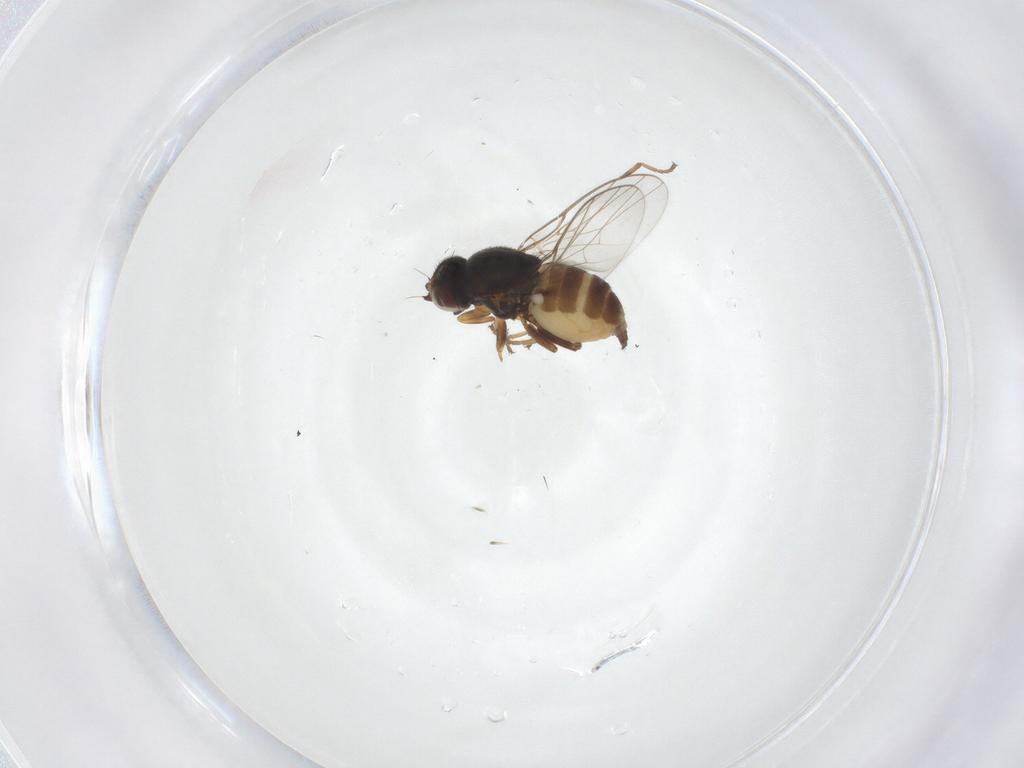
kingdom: Animalia
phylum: Arthropoda
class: Insecta
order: Diptera
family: Chloropidae
